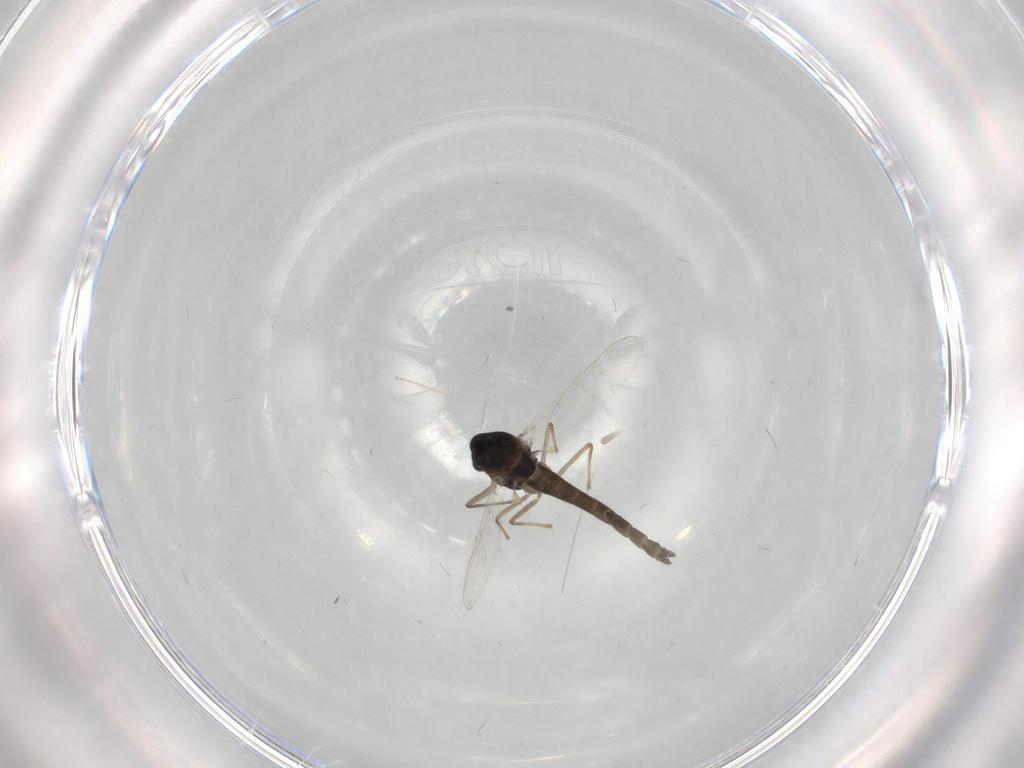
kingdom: Animalia
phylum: Arthropoda
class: Insecta
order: Diptera
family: Chironomidae
